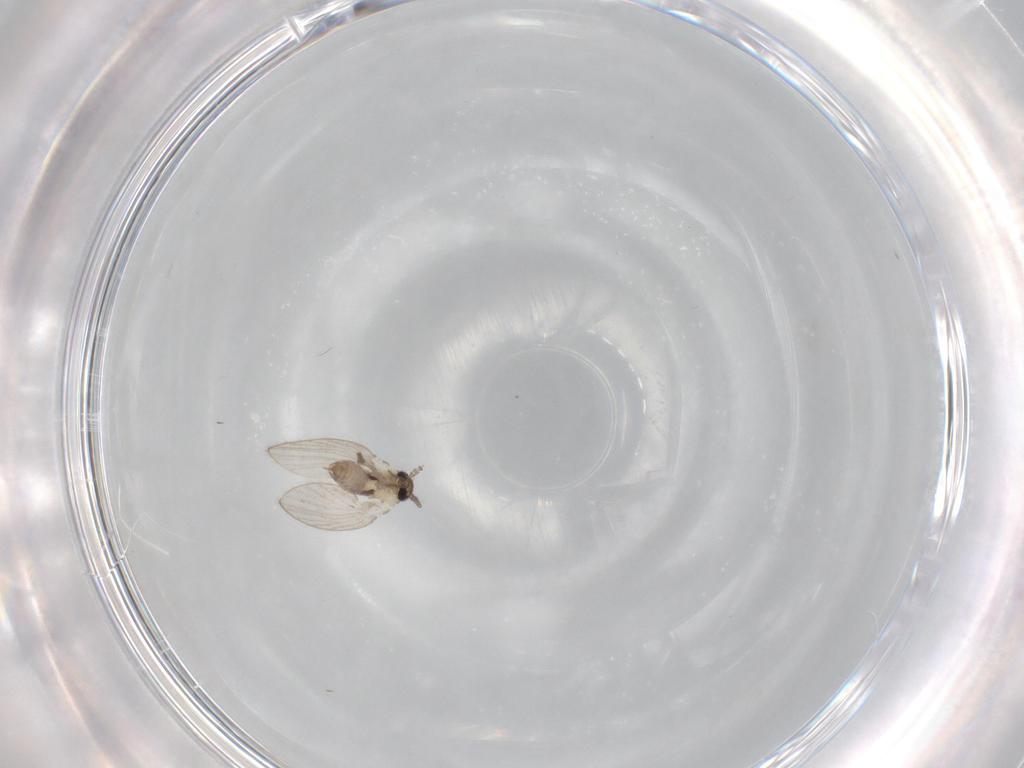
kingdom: Animalia
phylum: Arthropoda
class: Insecta
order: Diptera
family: Psychodidae
